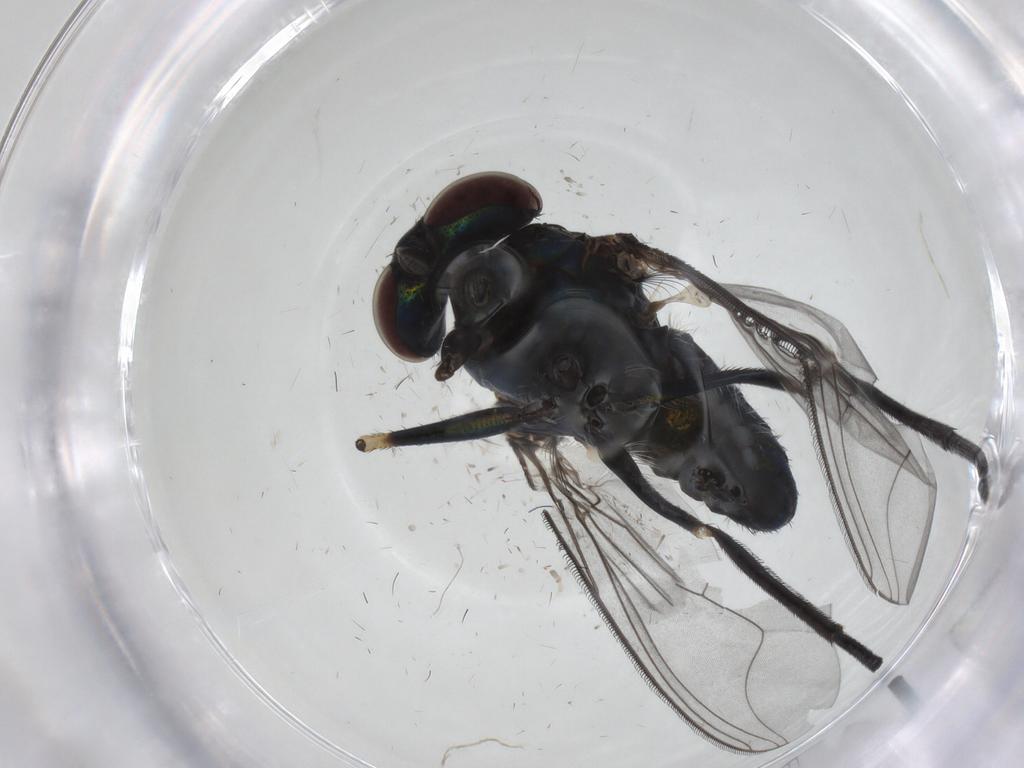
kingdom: Animalia
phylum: Arthropoda
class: Insecta
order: Diptera
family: Dolichopodidae
